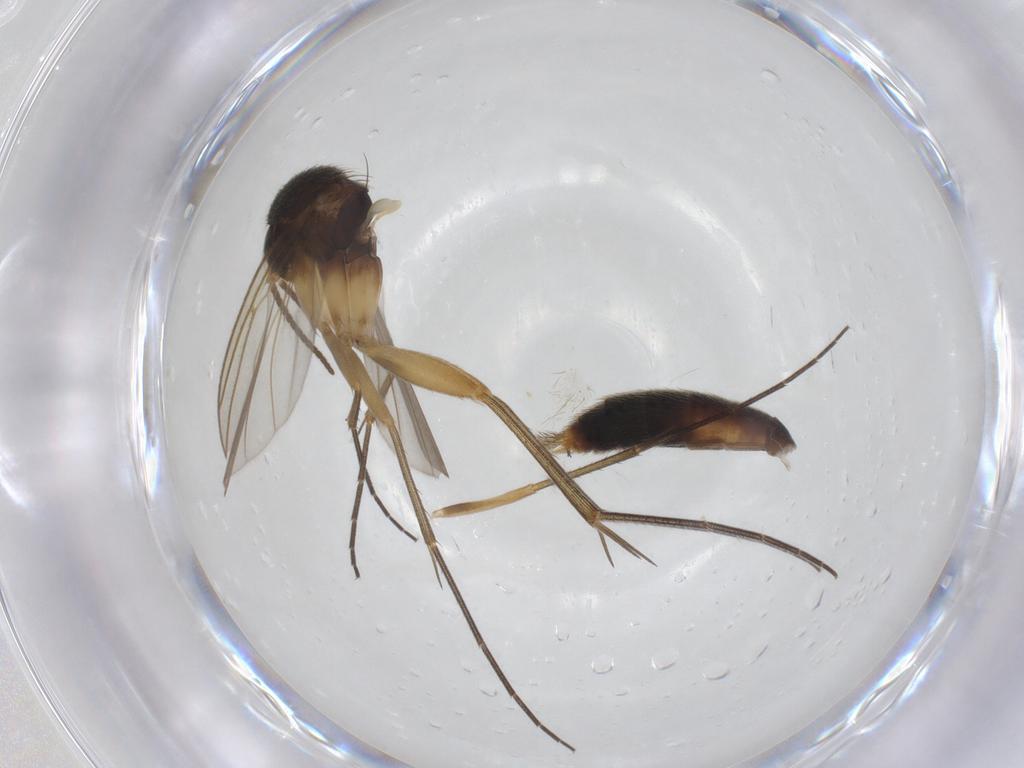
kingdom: Animalia
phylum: Arthropoda
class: Insecta
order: Diptera
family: Mycetophilidae
